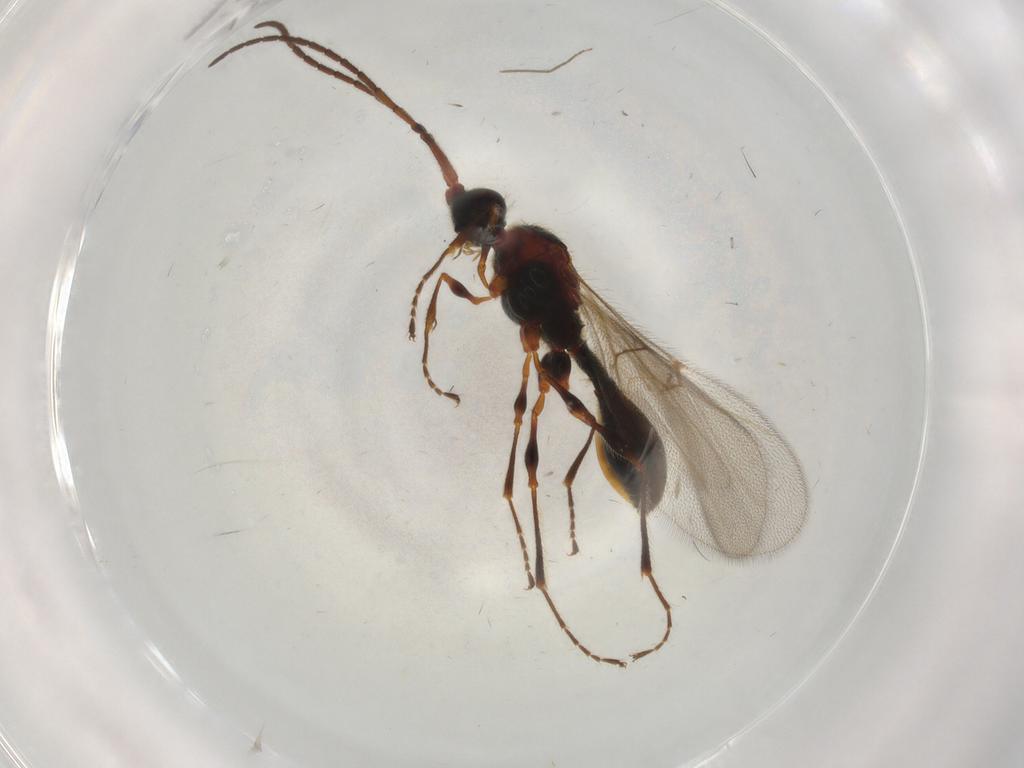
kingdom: Animalia
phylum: Arthropoda
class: Insecta
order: Hymenoptera
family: Diapriidae
